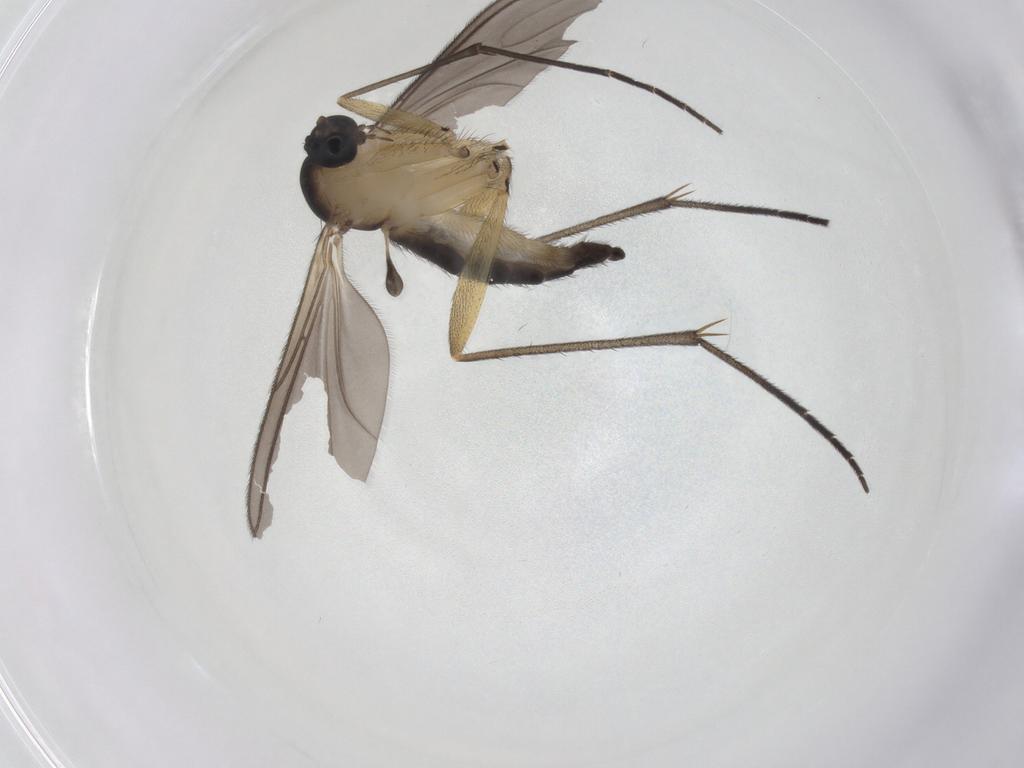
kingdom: Animalia
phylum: Arthropoda
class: Insecta
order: Diptera
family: Sciaridae
